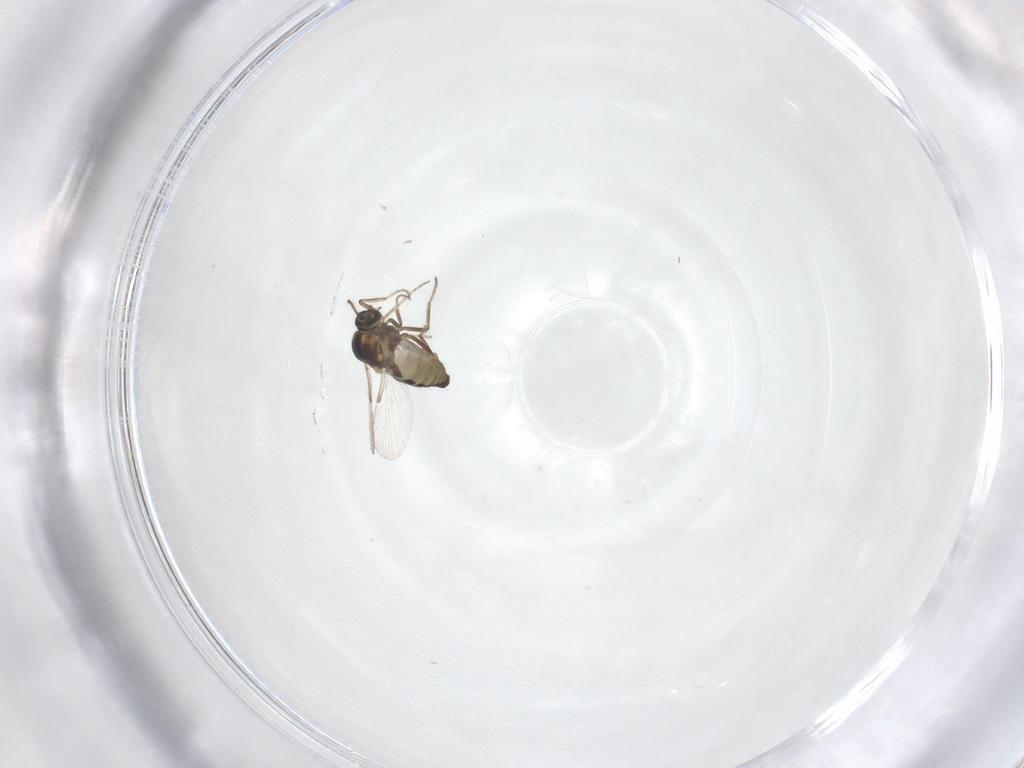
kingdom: Animalia
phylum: Arthropoda
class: Insecta
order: Diptera
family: Ceratopogonidae
